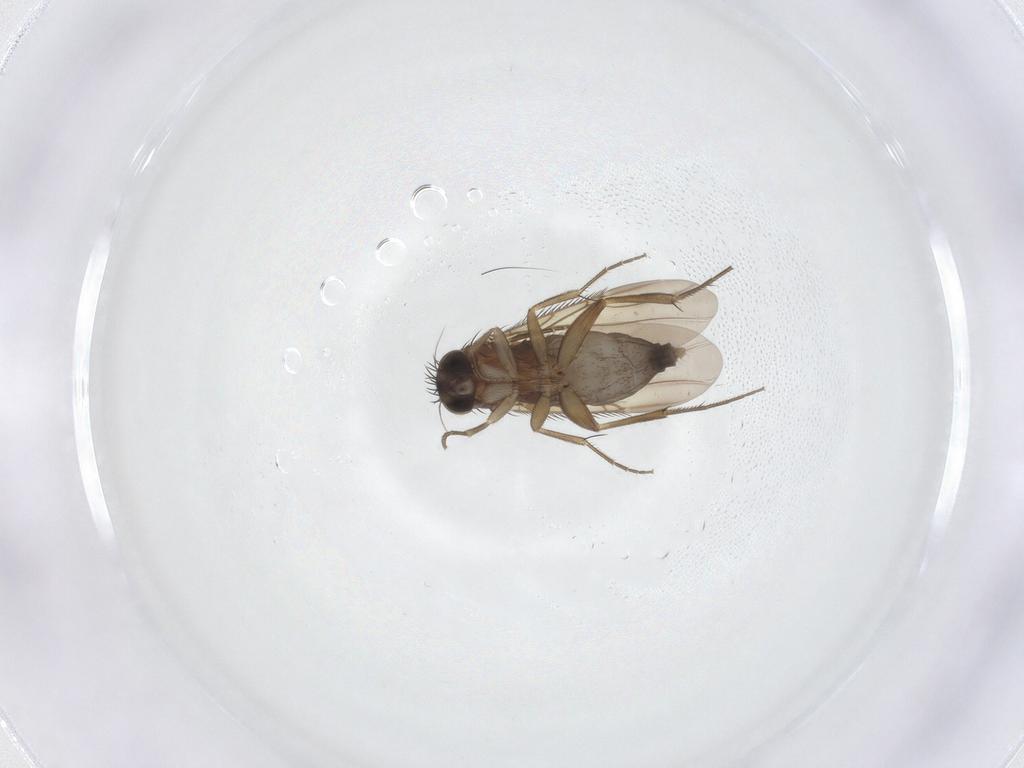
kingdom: Animalia
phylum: Arthropoda
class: Insecta
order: Diptera
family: Phoridae
